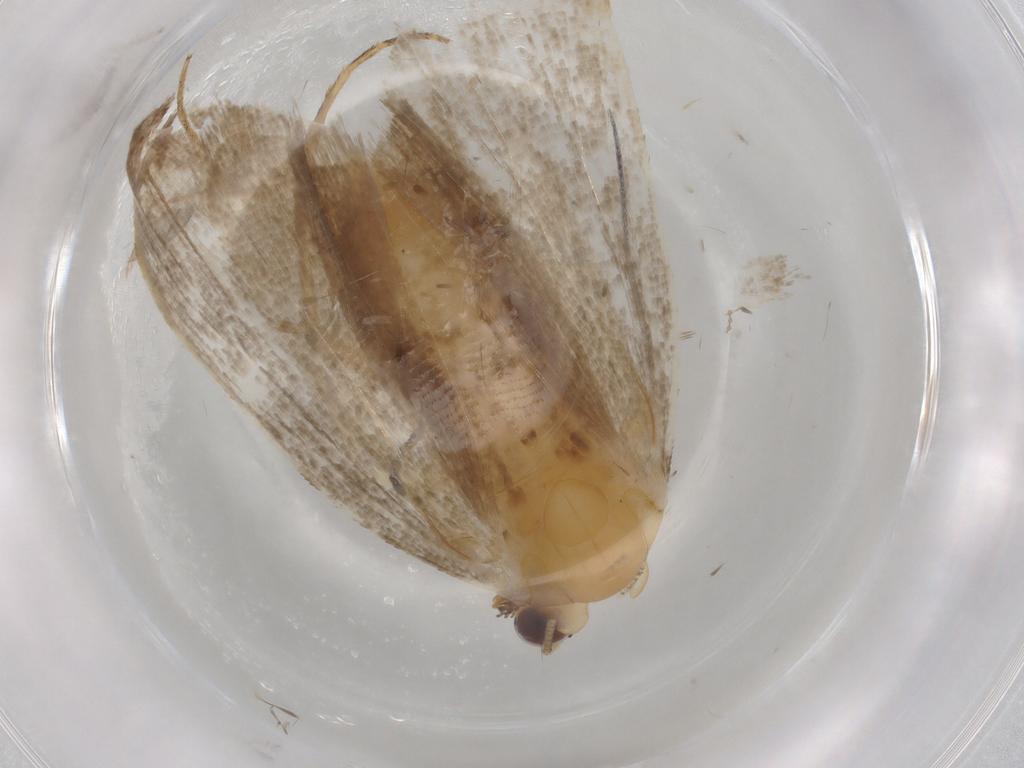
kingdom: Animalia
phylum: Arthropoda
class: Insecta
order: Lepidoptera
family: Erebidae
